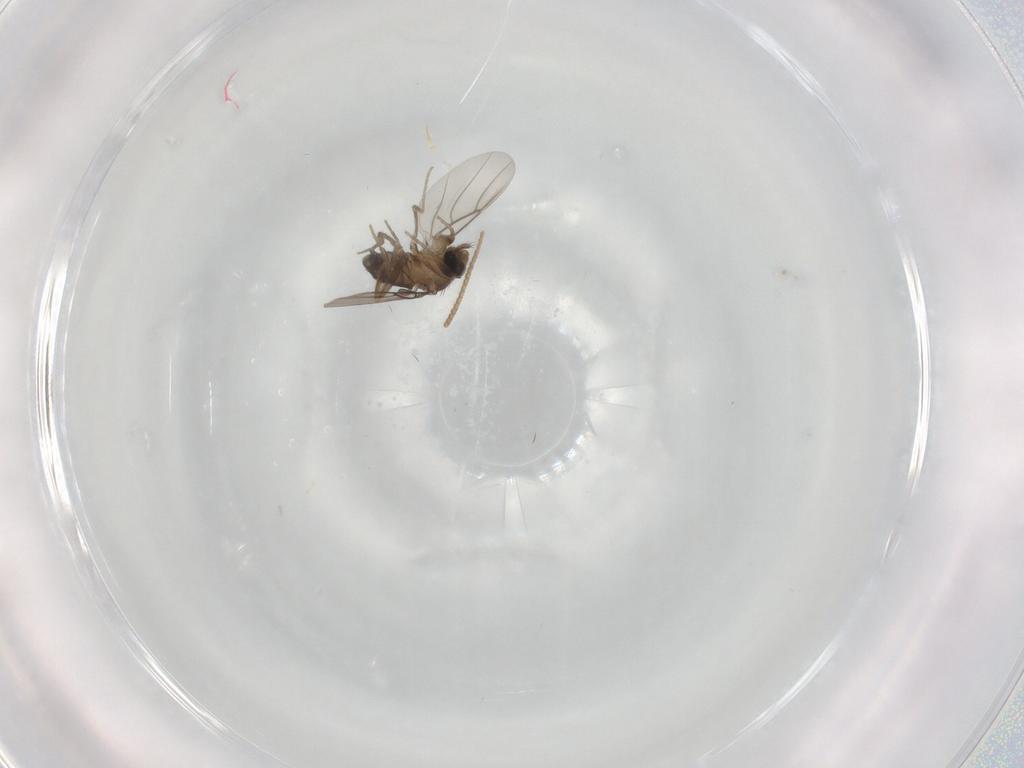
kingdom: Animalia
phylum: Arthropoda
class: Insecta
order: Diptera
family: Phoridae
